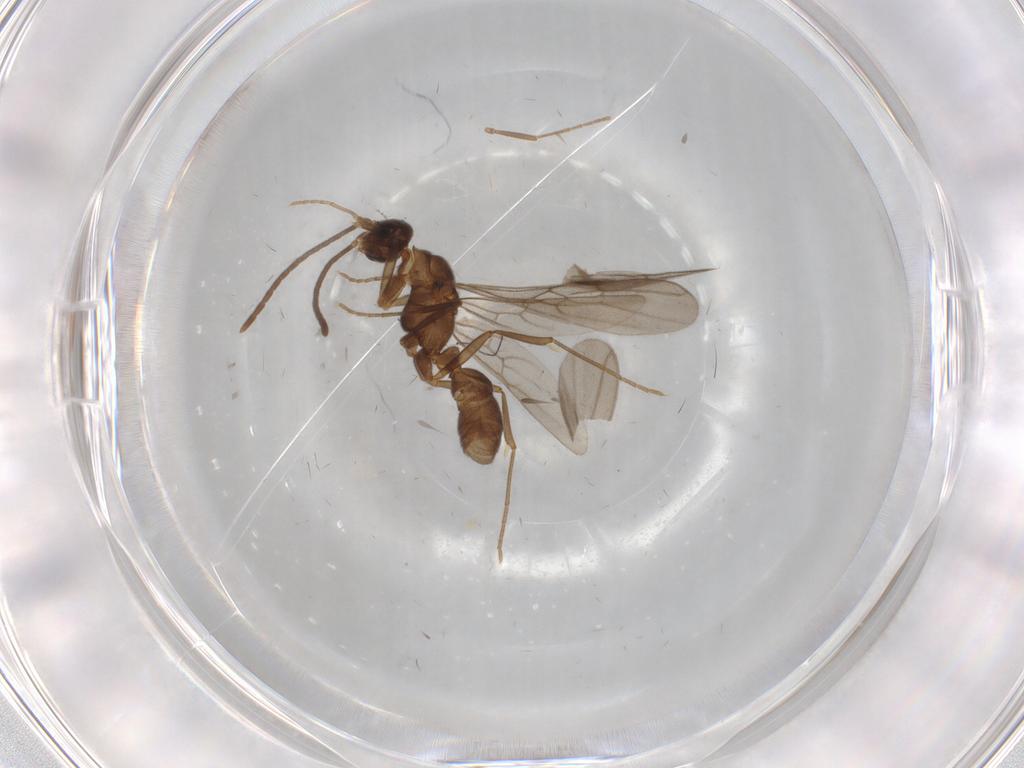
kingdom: Animalia
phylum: Arthropoda
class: Insecta
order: Hymenoptera
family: Formicidae
